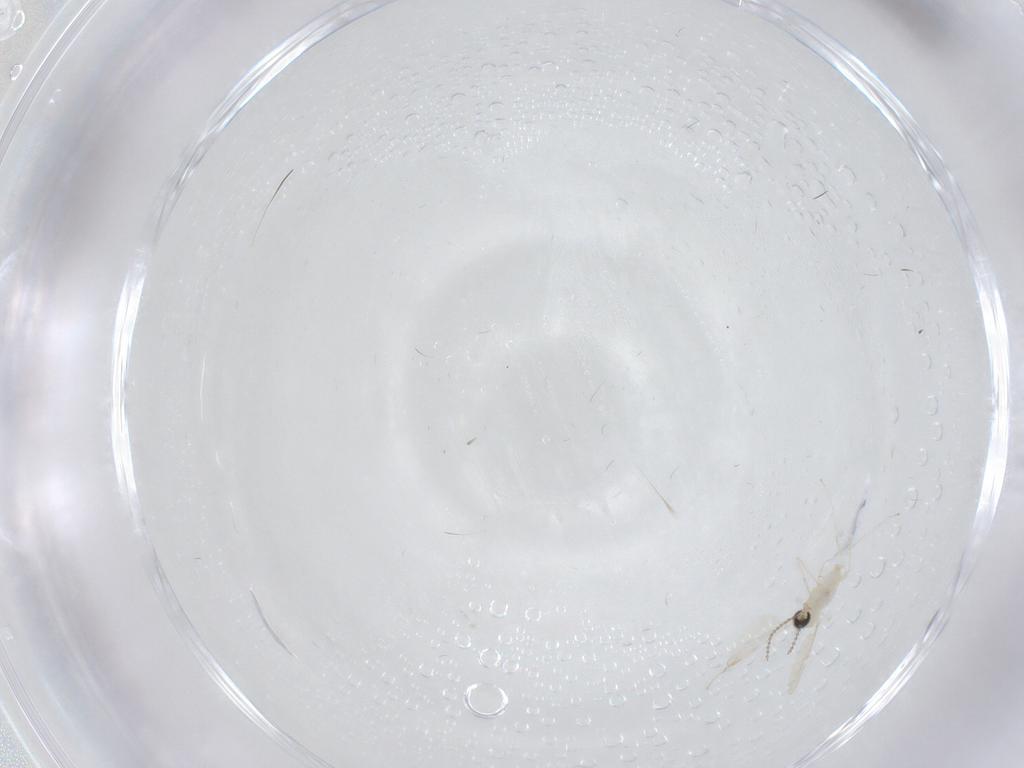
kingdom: Animalia
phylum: Arthropoda
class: Insecta
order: Diptera
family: Cecidomyiidae
